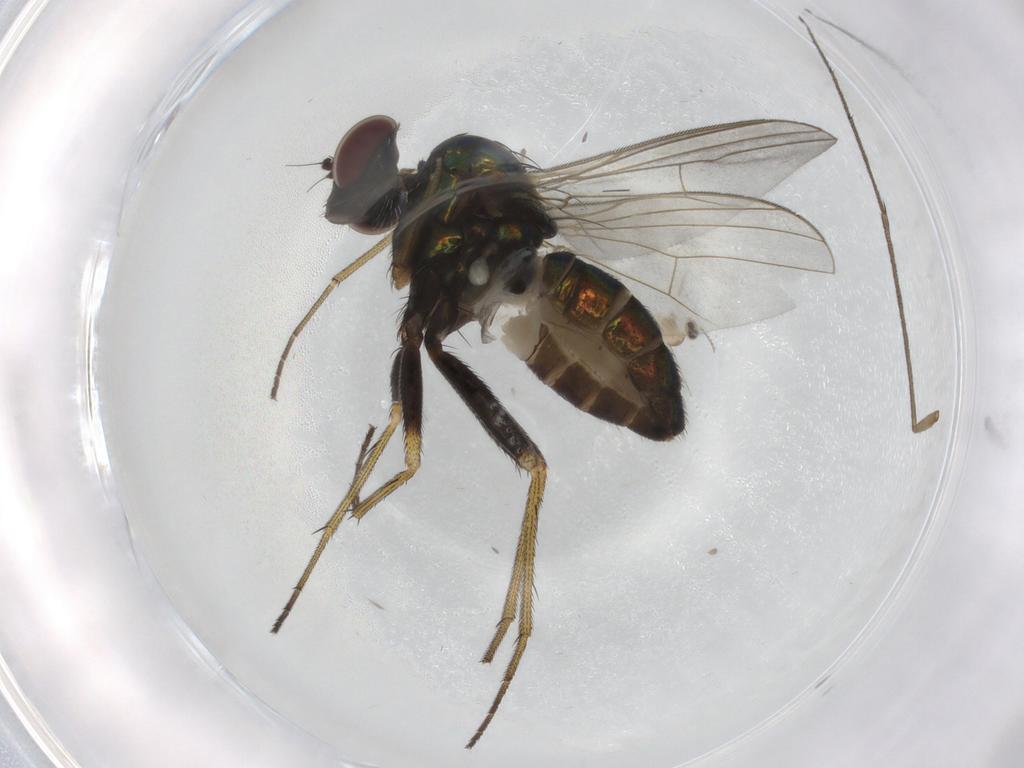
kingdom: Animalia
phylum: Arthropoda
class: Insecta
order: Diptera
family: Dolichopodidae
